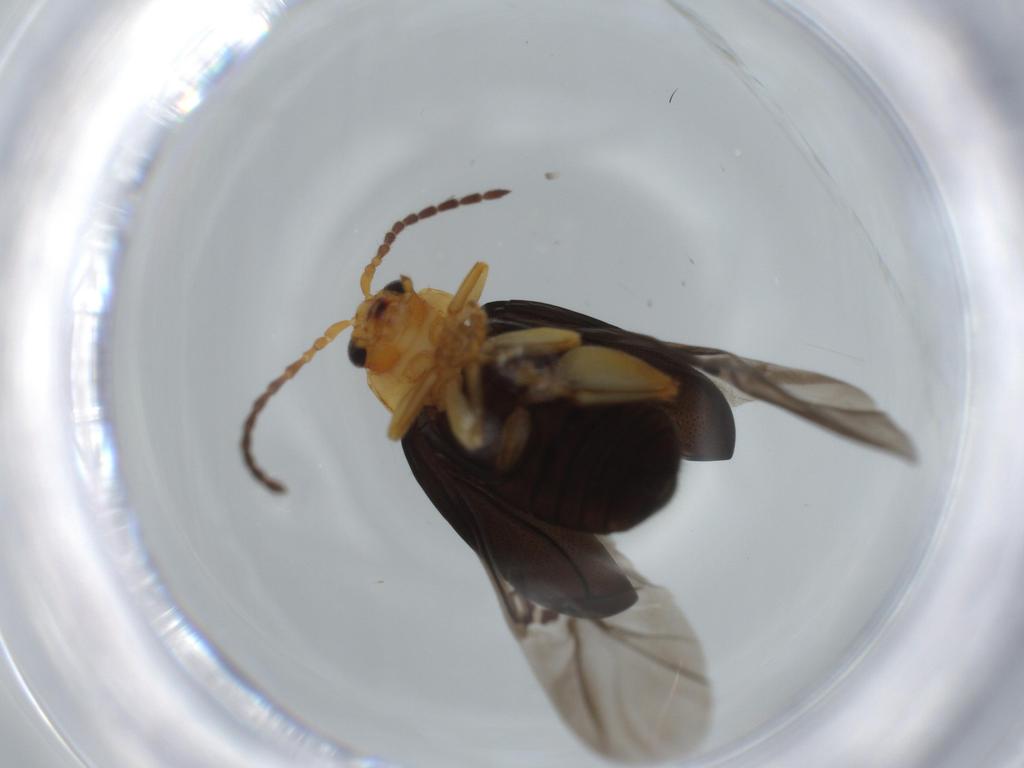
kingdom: Animalia
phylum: Arthropoda
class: Insecta
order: Coleoptera
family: Chrysomelidae
